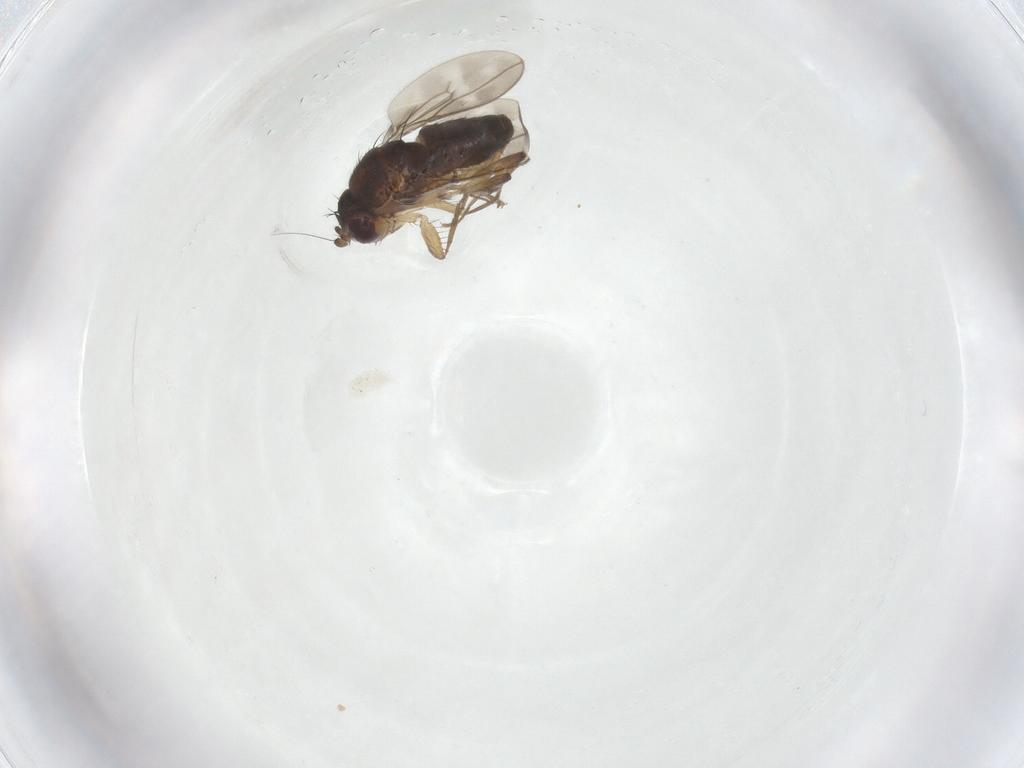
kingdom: Animalia
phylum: Arthropoda
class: Insecta
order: Diptera
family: Sphaeroceridae
